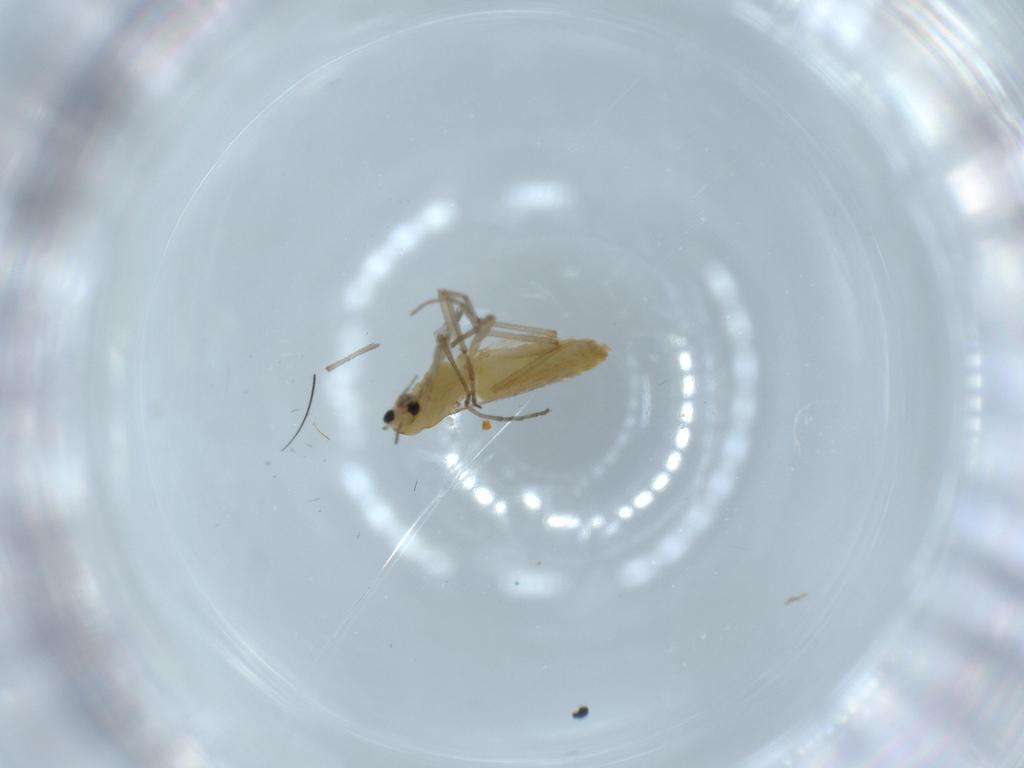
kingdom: Animalia
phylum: Arthropoda
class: Insecta
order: Diptera
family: Chironomidae
